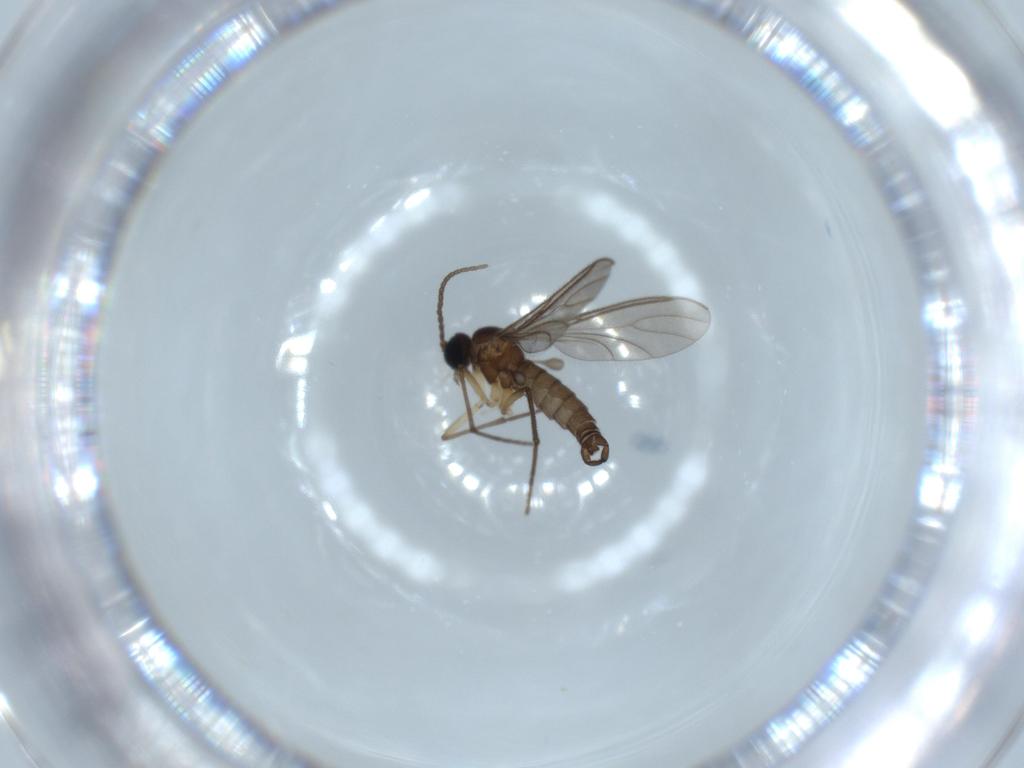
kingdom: Animalia
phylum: Arthropoda
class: Insecta
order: Diptera
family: Sciaridae
